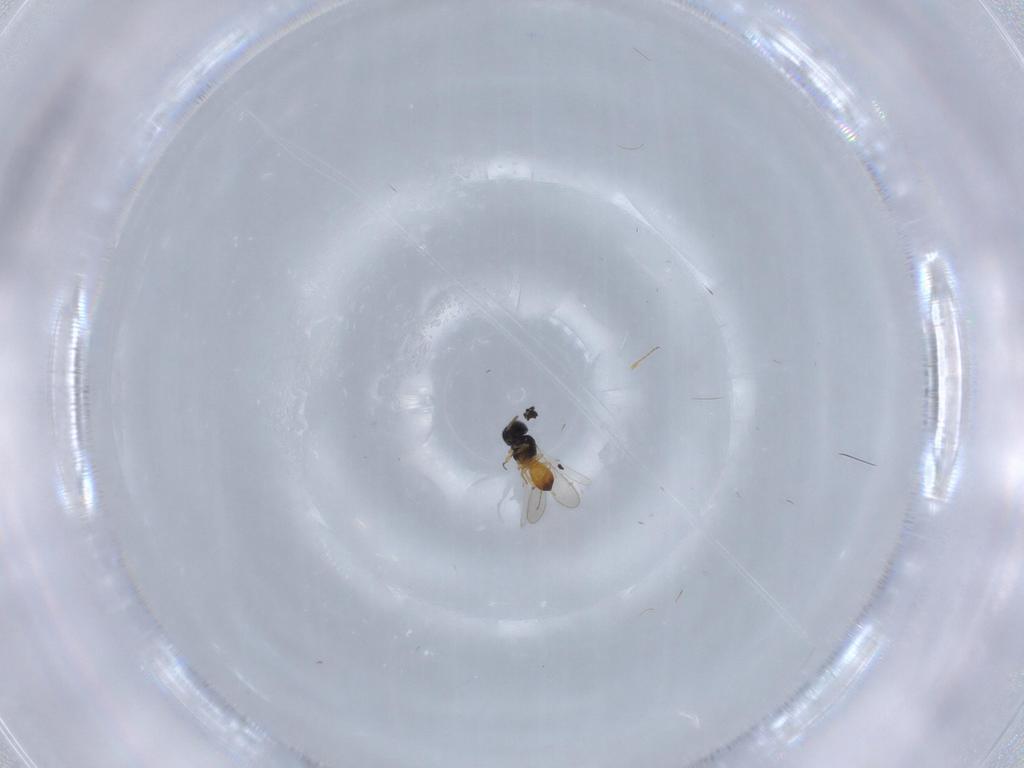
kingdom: Animalia
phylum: Arthropoda
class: Insecta
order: Hymenoptera
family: Scelionidae
